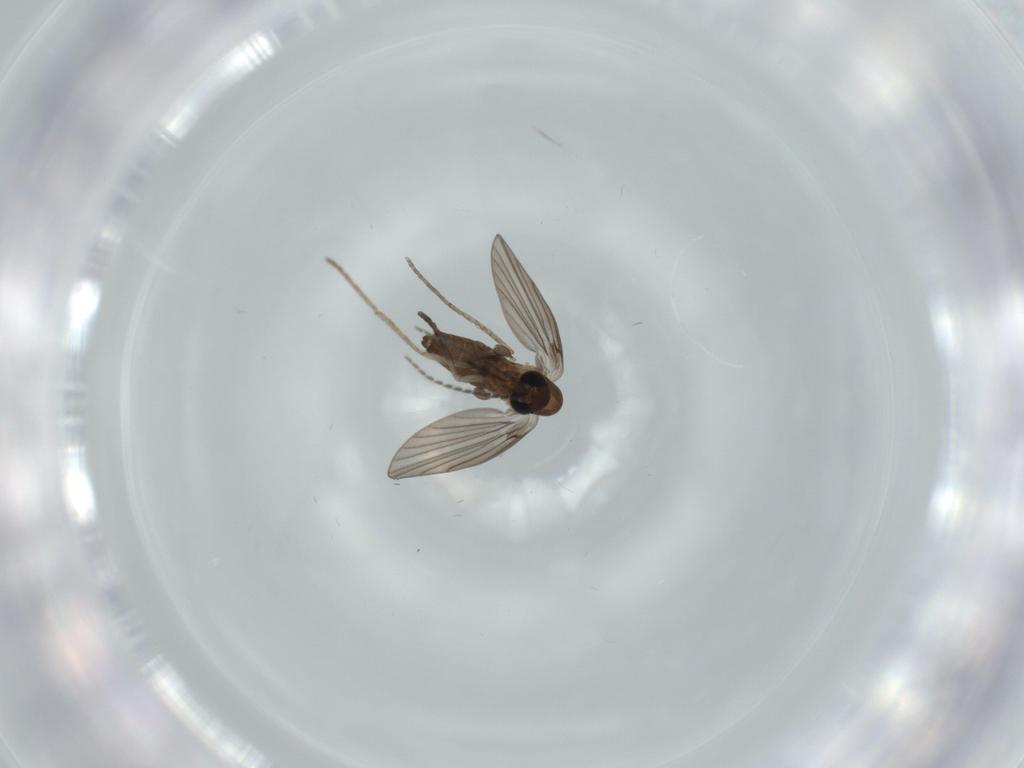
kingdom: Animalia
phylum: Arthropoda
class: Insecta
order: Diptera
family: Psychodidae
